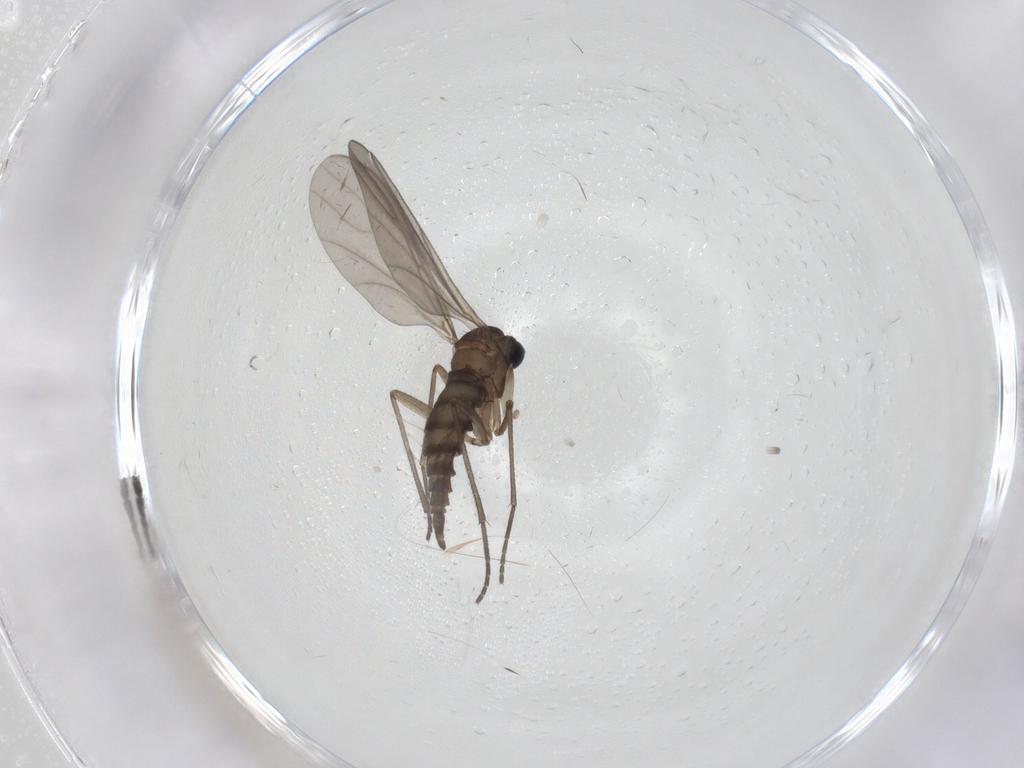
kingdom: Animalia
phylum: Arthropoda
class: Insecta
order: Diptera
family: Sciaridae
